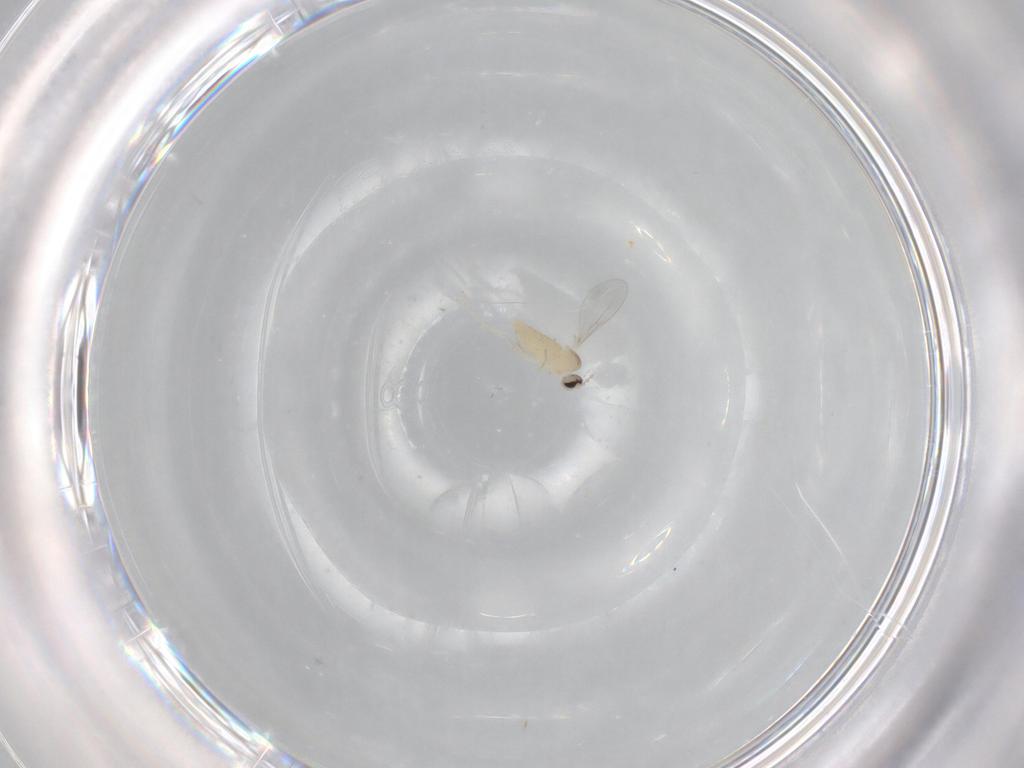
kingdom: Animalia
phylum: Arthropoda
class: Insecta
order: Diptera
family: Cecidomyiidae
